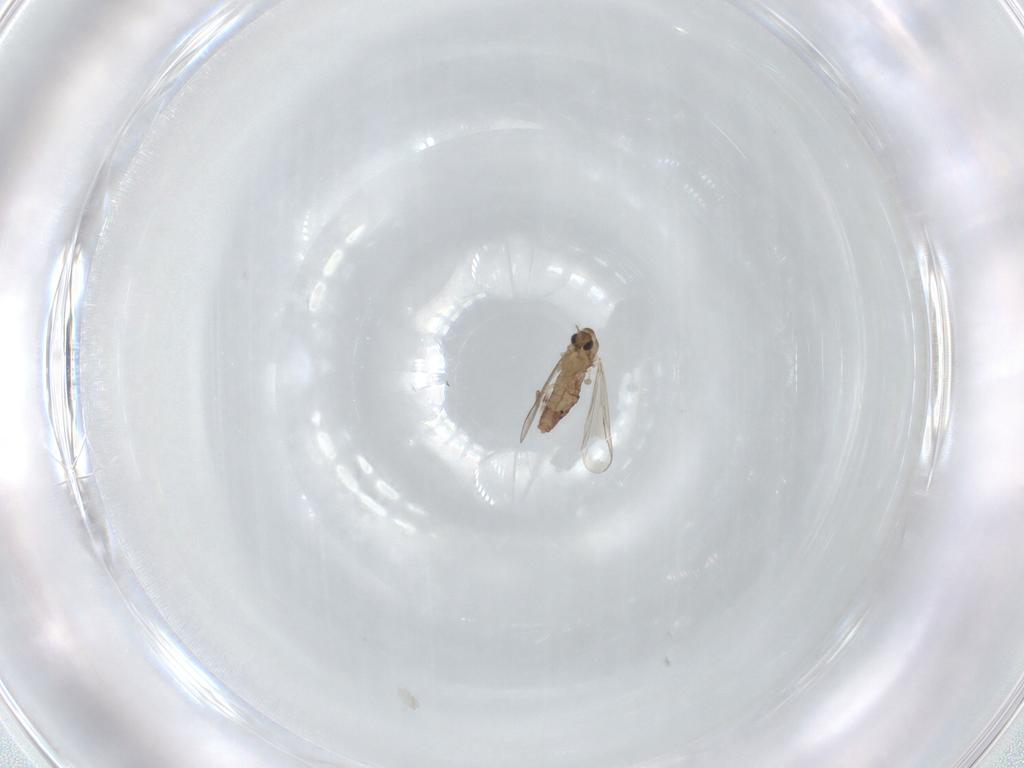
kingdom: Animalia
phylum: Arthropoda
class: Insecta
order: Diptera
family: Chironomidae
